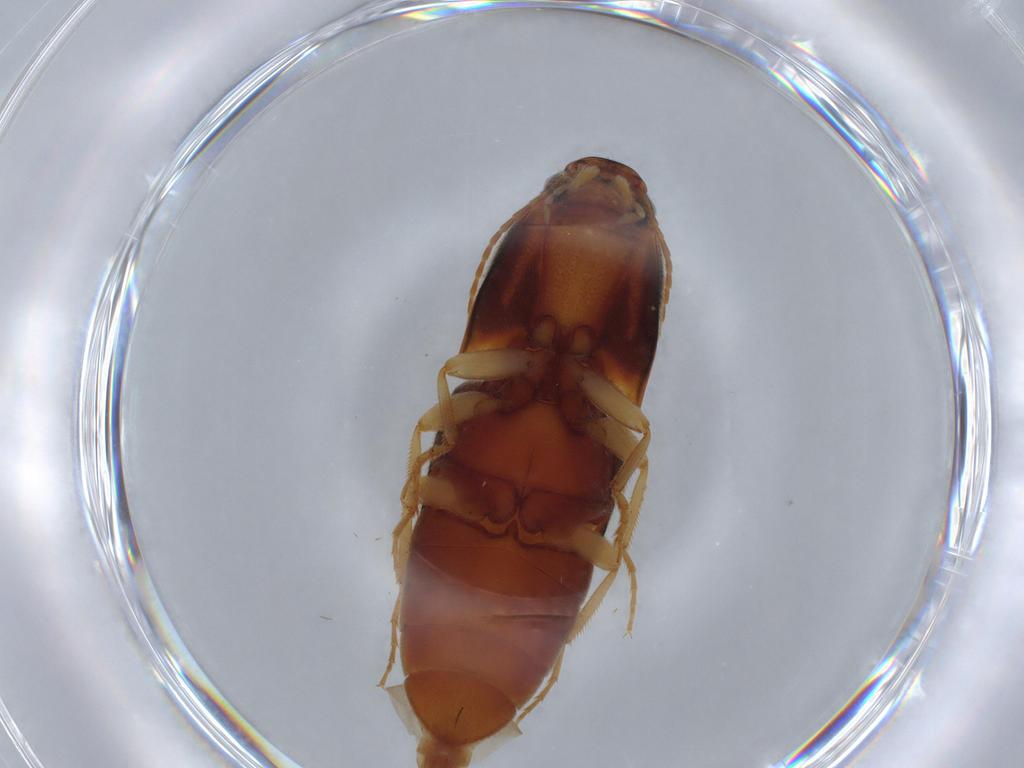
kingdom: Animalia
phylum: Arthropoda
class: Insecta
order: Coleoptera
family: Elateridae
